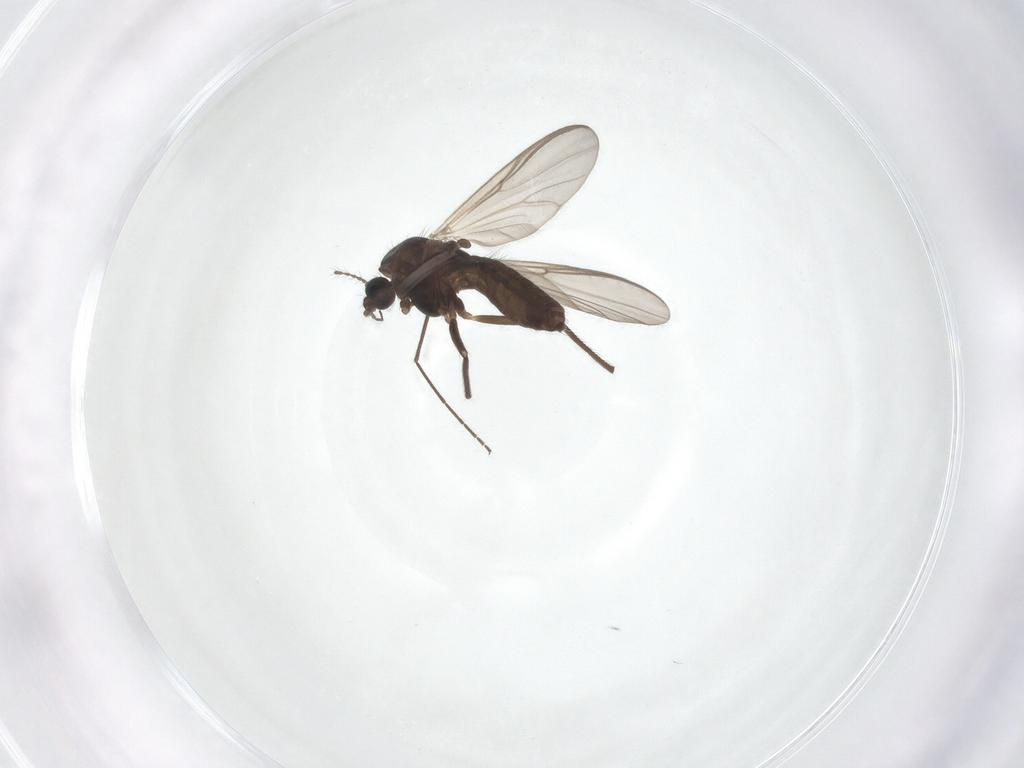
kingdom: Animalia
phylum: Arthropoda
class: Insecta
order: Diptera
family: Chironomidae
